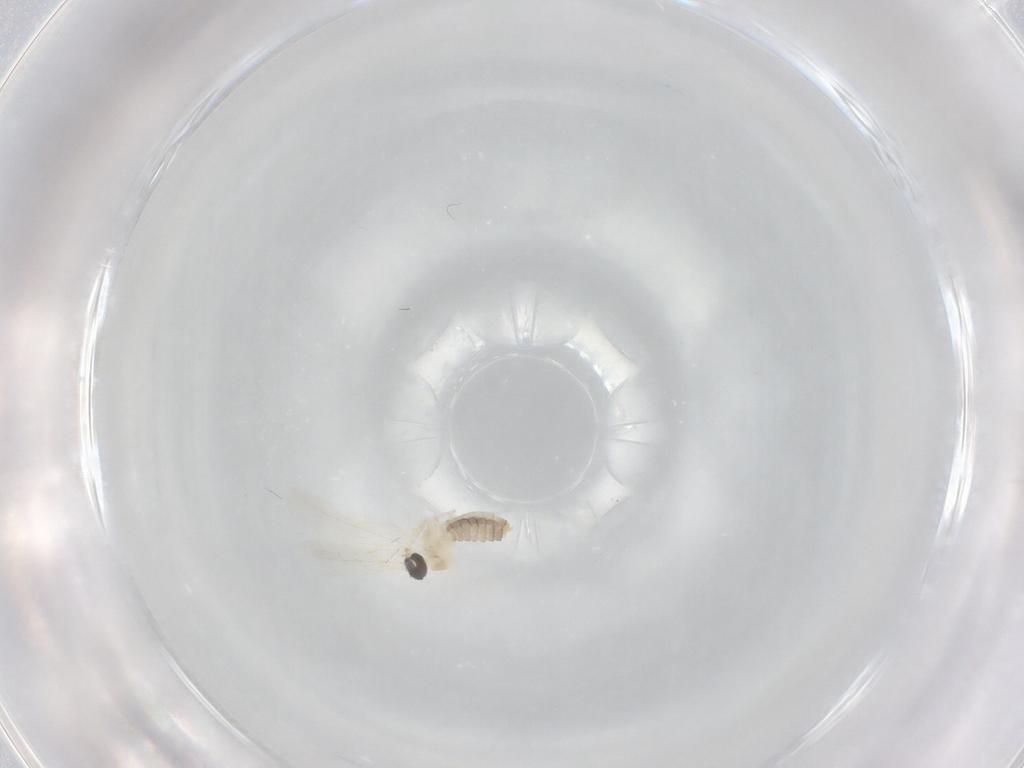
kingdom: Animalia
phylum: Arthropoda
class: Insecta
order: Diptera
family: Cecidomyiidae
